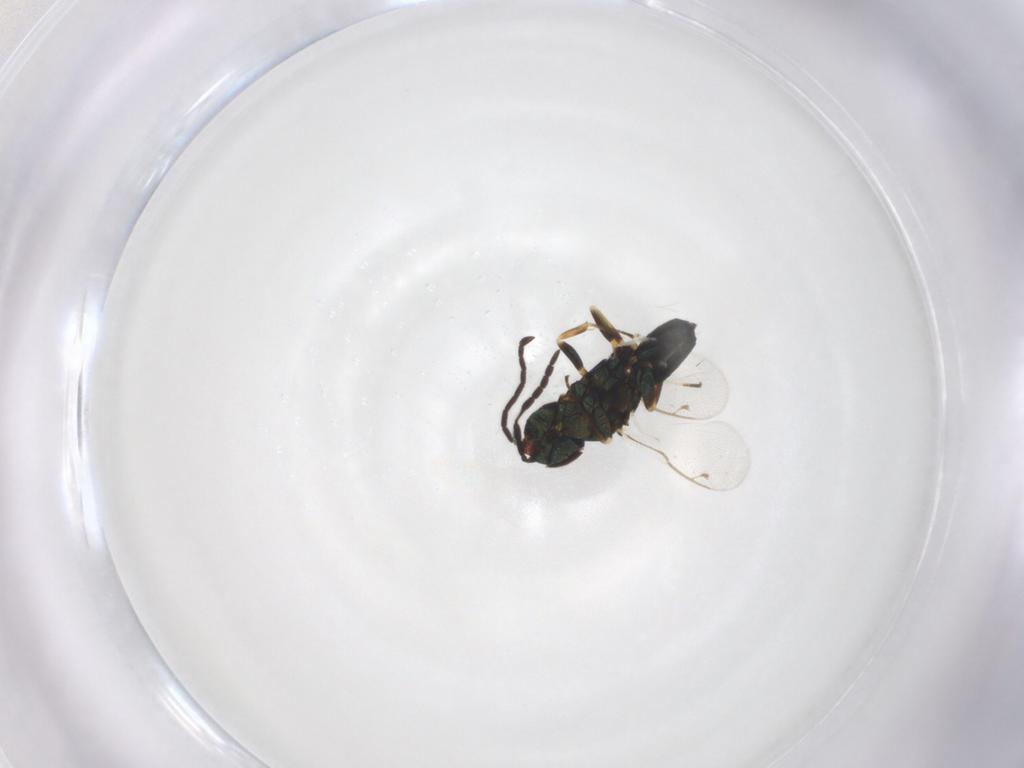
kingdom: Animalia
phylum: Arthropoda
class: Insecta
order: Hymenoptera
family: Eupelmidae
